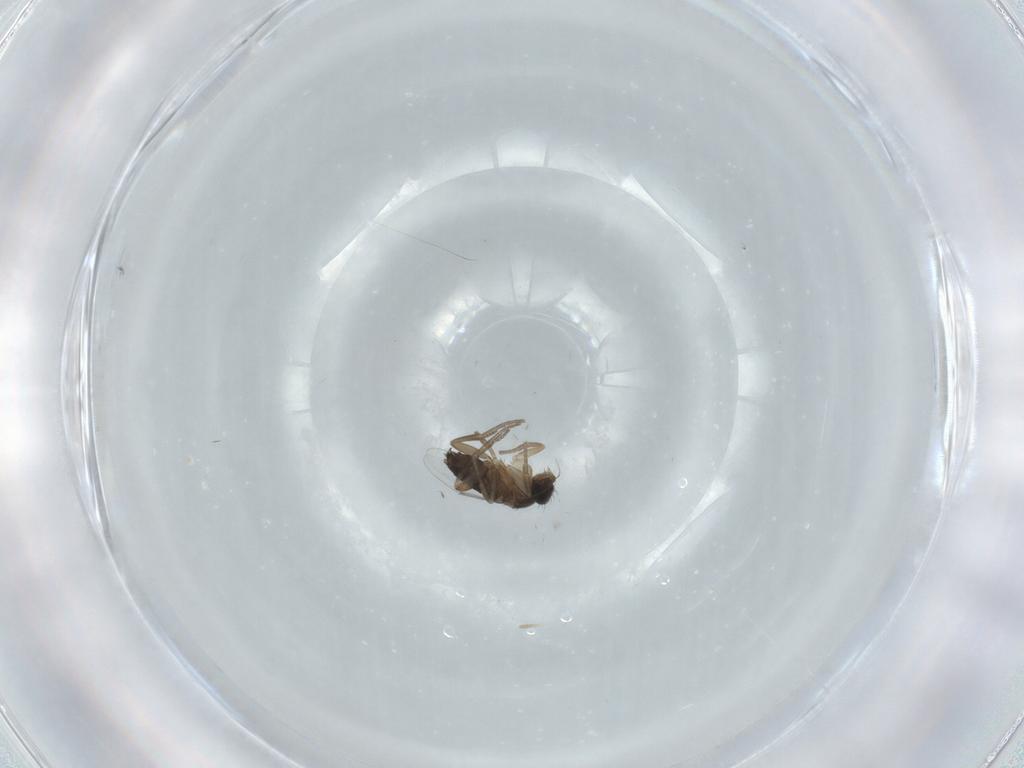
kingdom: Animalia
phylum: Arthropoda
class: Insecta
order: Diptera
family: Phoridae
